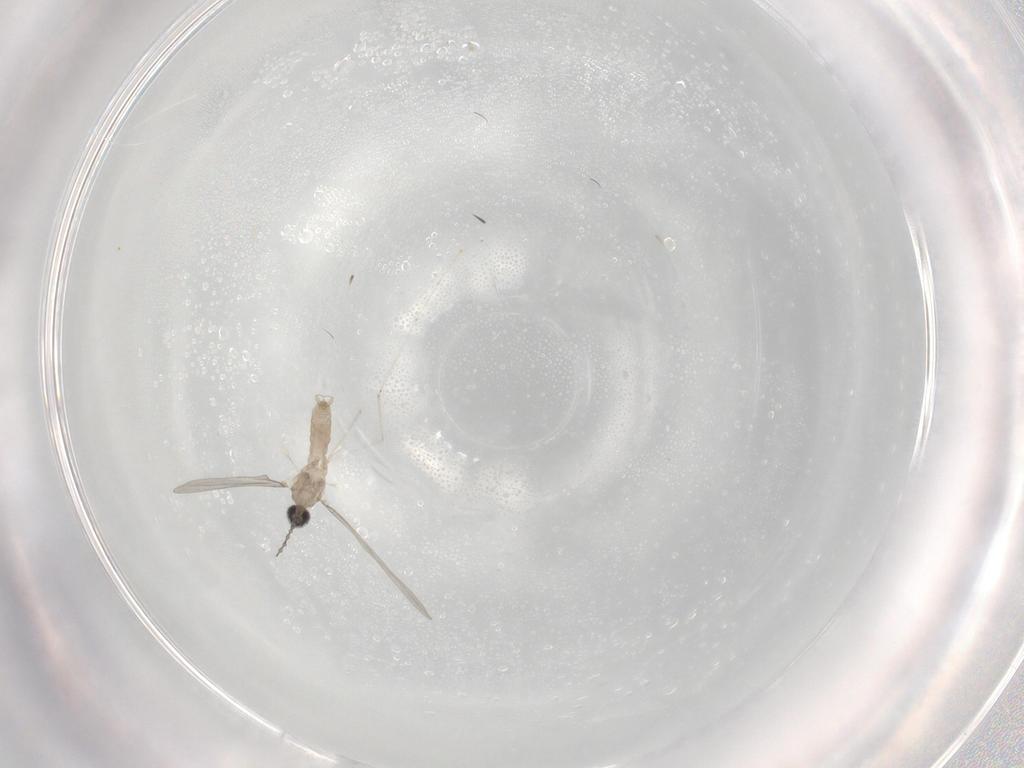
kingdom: Animalia
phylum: Arthropoda
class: Insecta
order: Diptera
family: Cecidomyiidae
